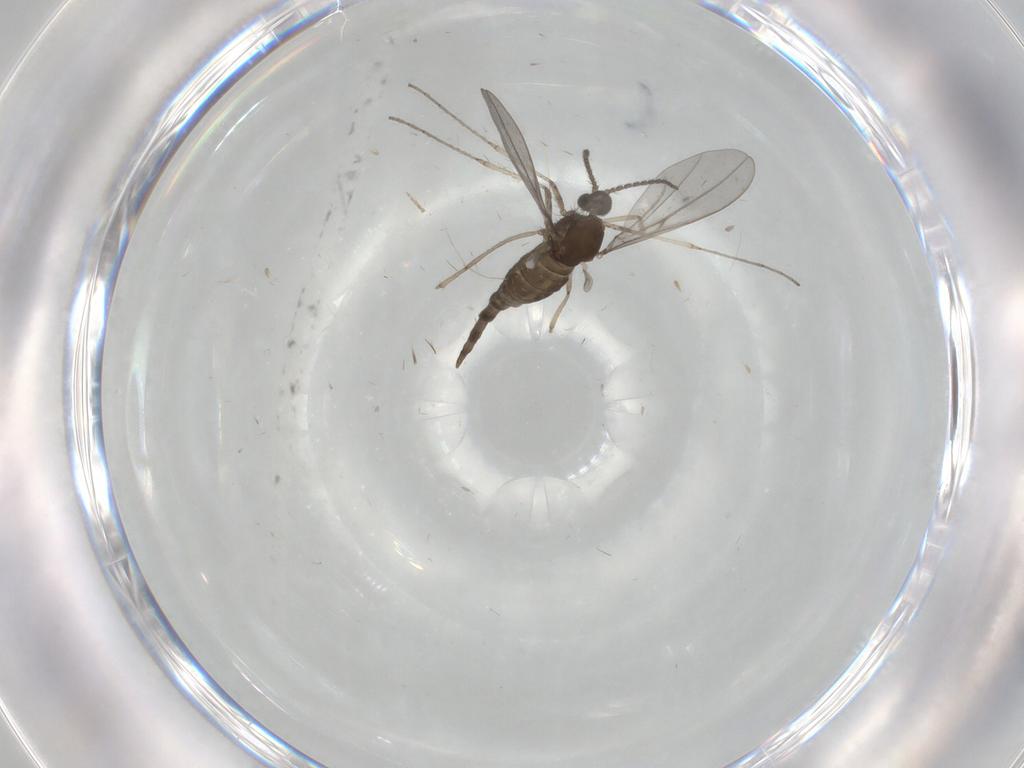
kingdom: Animalia
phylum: Arthropoda
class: Insecta
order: Diptera
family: Cecidomyiidae
